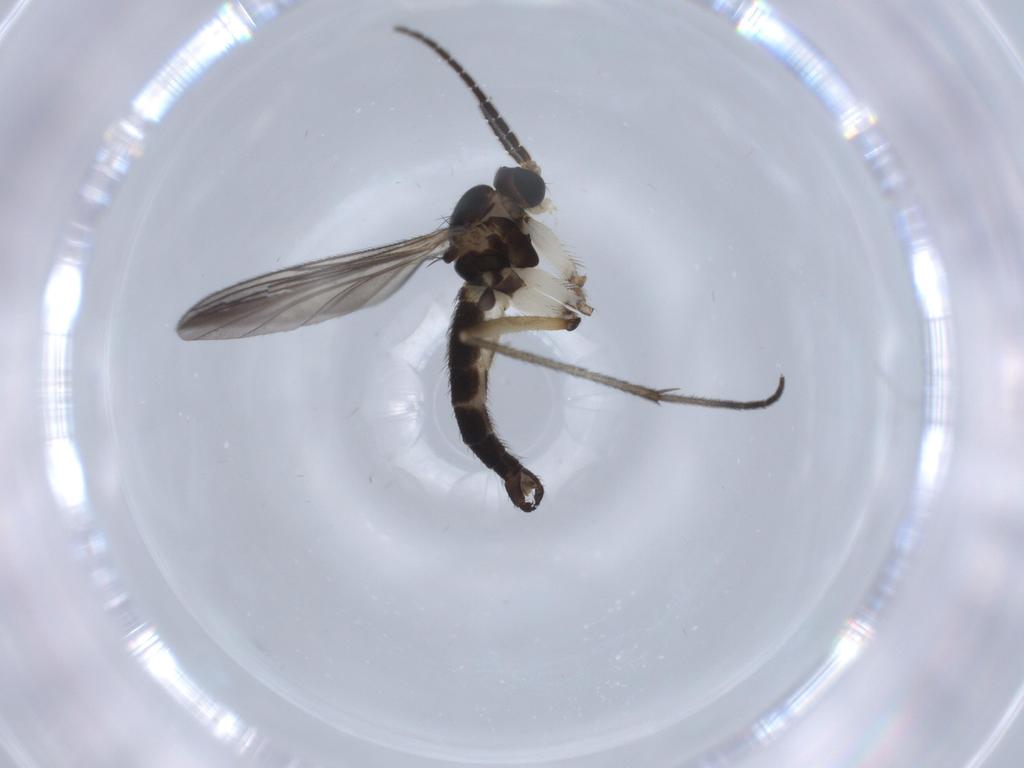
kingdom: Animalia
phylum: Arthropoda
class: Insecta
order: Diptera
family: Sciaridae
